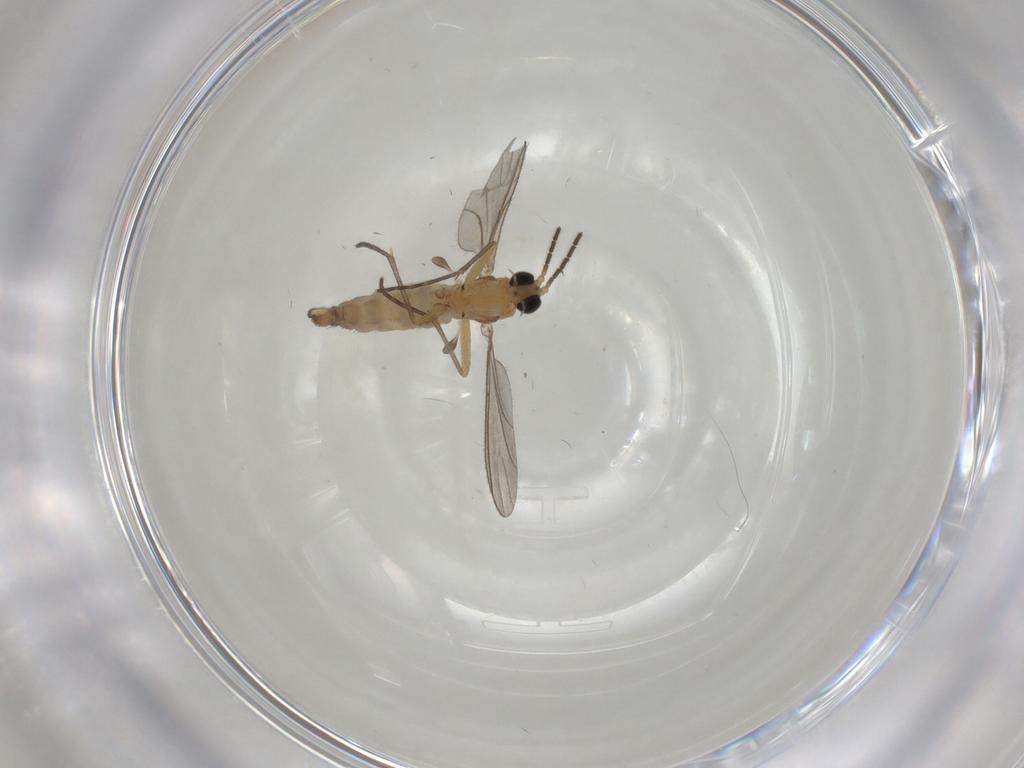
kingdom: Animalia
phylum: Arthropoda
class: Insecta
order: Diptera
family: Sciaridae
